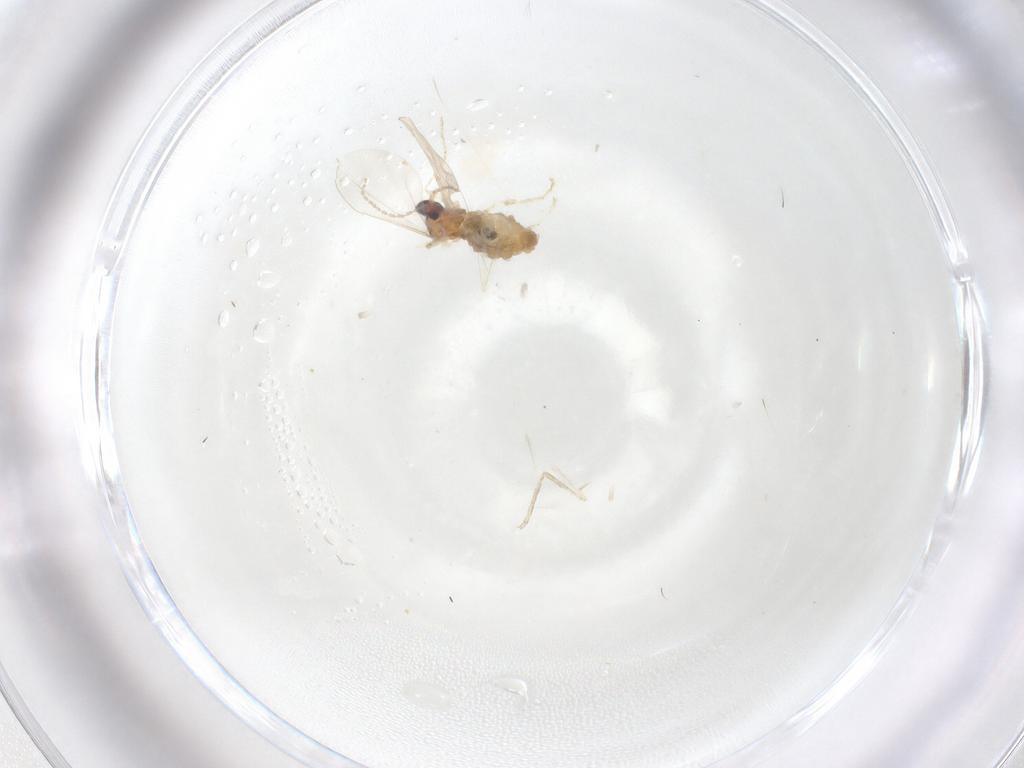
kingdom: Animalia
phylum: Arthropoda
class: Insecta
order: Diptera
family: Cecidomyiidae
